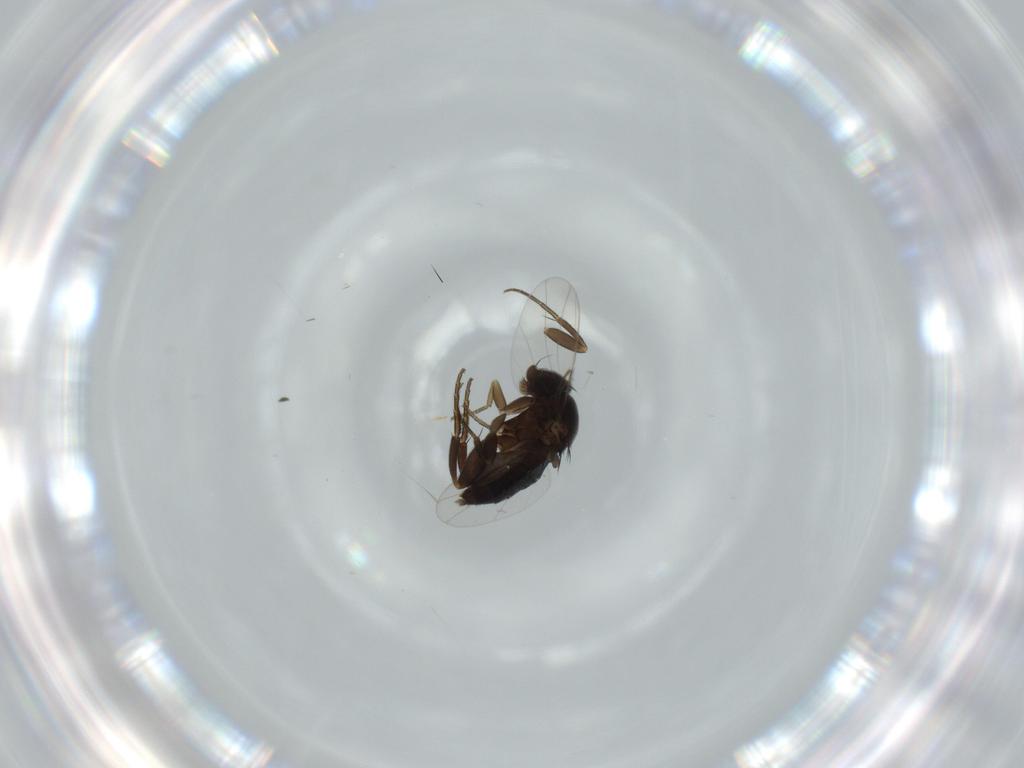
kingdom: Animalia
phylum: Arthropoda
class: Insecta
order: Diptera
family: Phoridae
